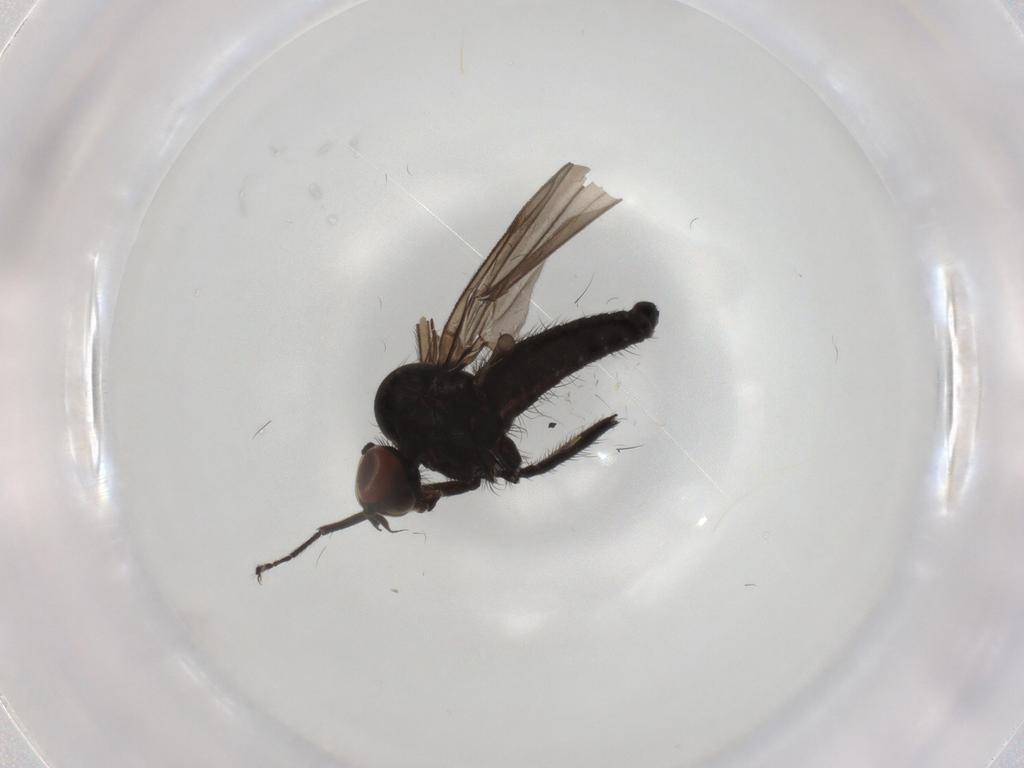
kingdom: Animalia
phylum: Arthropoda
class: Insecta
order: Diptera
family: Hybotidae
